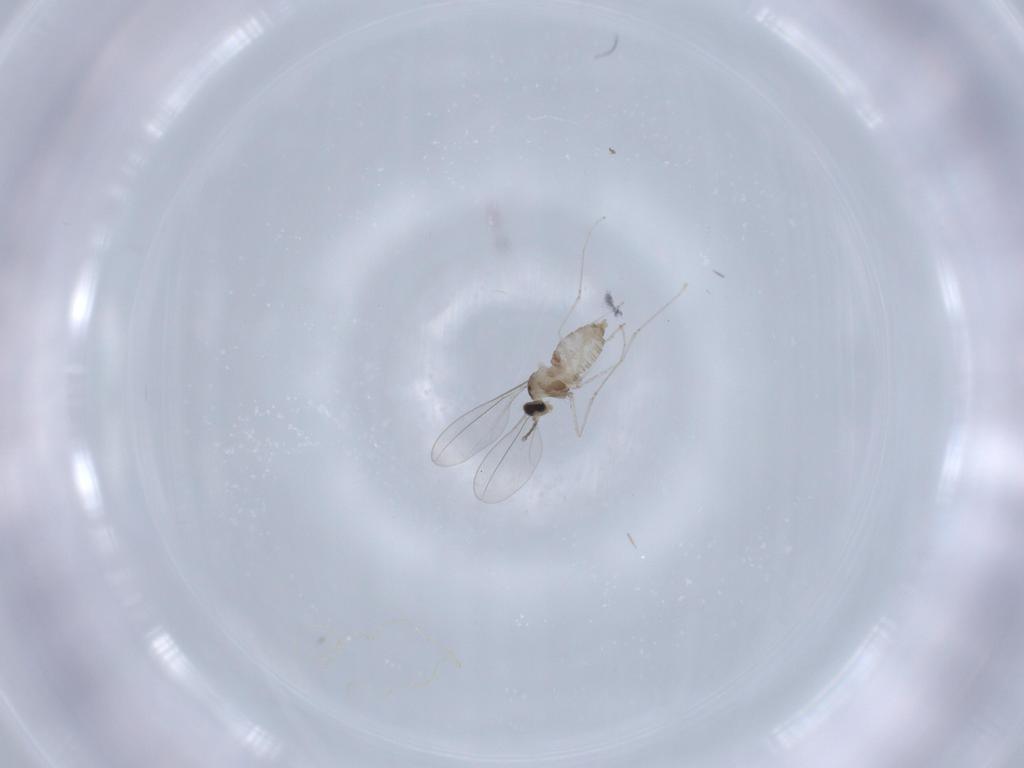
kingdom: Animalia
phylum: Arthropoda
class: Insecta
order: Diptera
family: Cecidomyiidae
